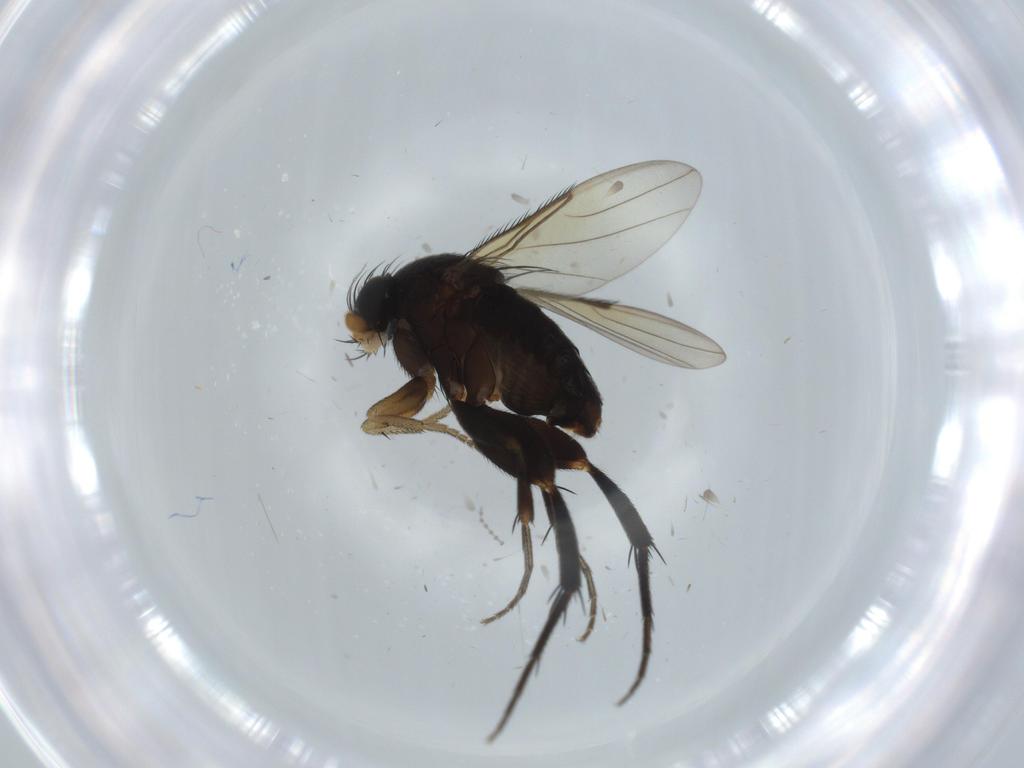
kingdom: Animalia
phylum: Arthropoda
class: Insecta
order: Diptera
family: Phoridae
